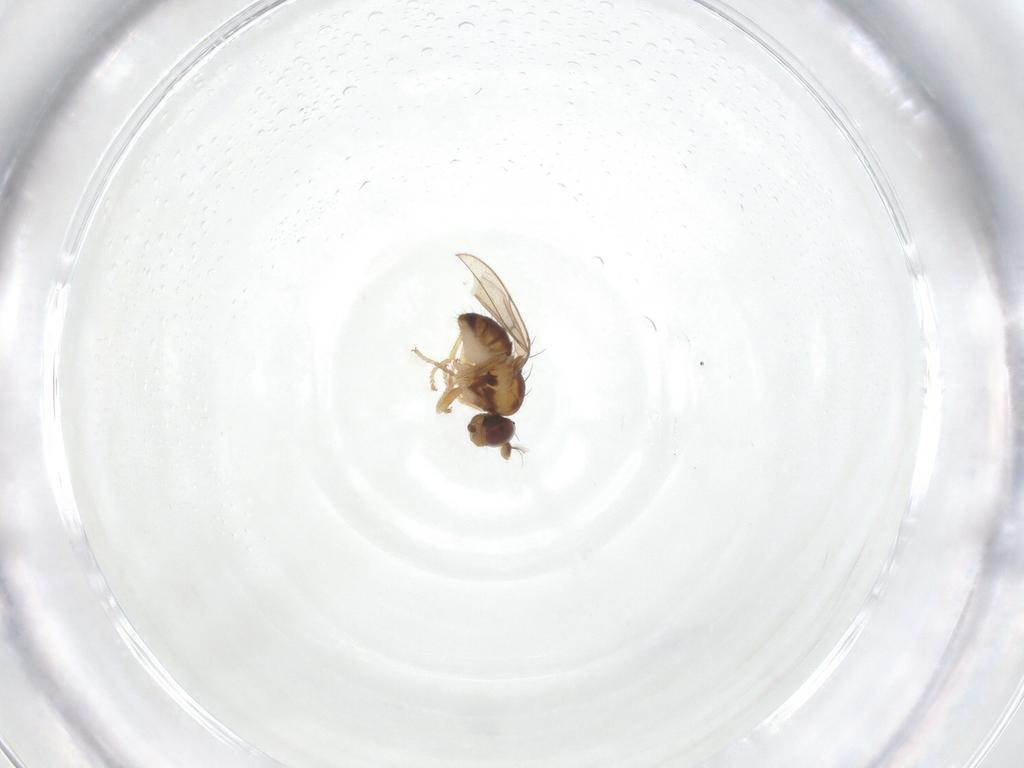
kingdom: Animalia
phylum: Arthropoda
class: Insecta
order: Diptera
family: Ephydridae
